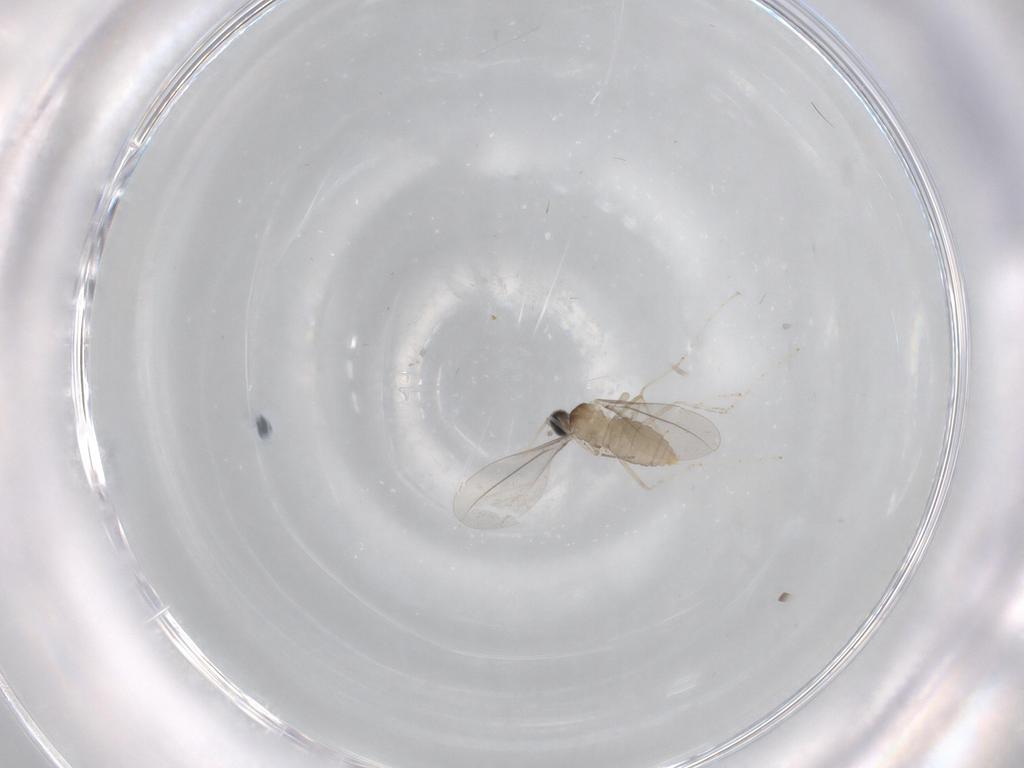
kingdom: Animalia
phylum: Arthropoda
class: Insecta
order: Diptera
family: Cecidomyiidae
